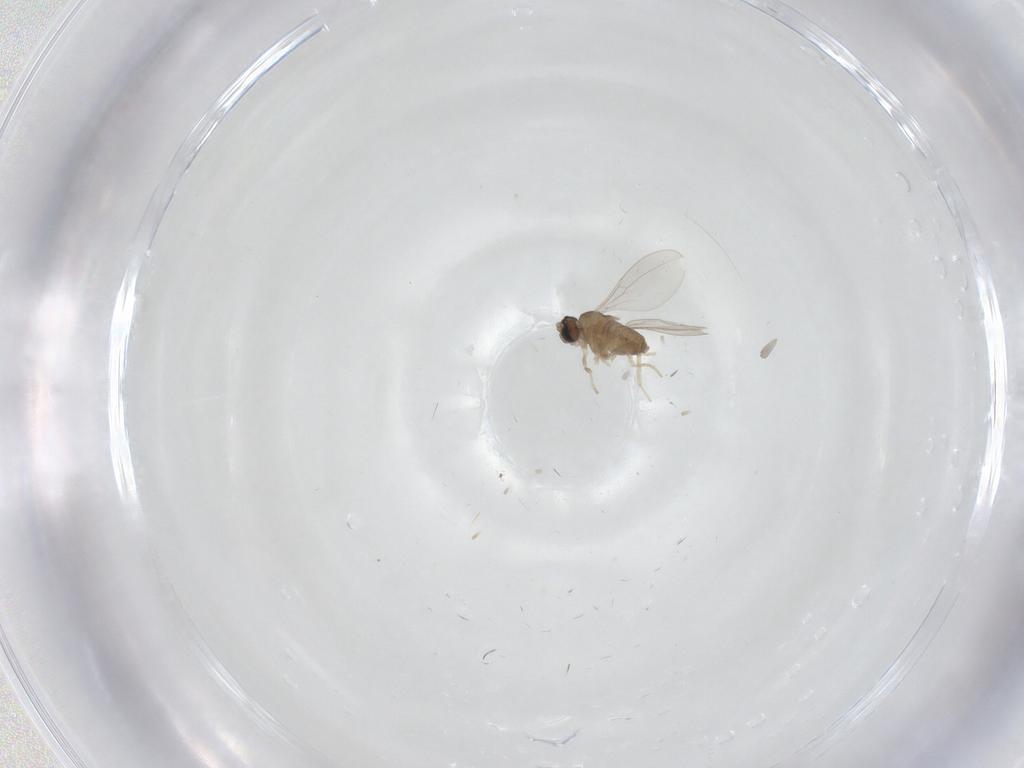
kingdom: Animalia
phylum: Arthropoda
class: Insecta
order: Diptera
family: Cecidomyiidae
